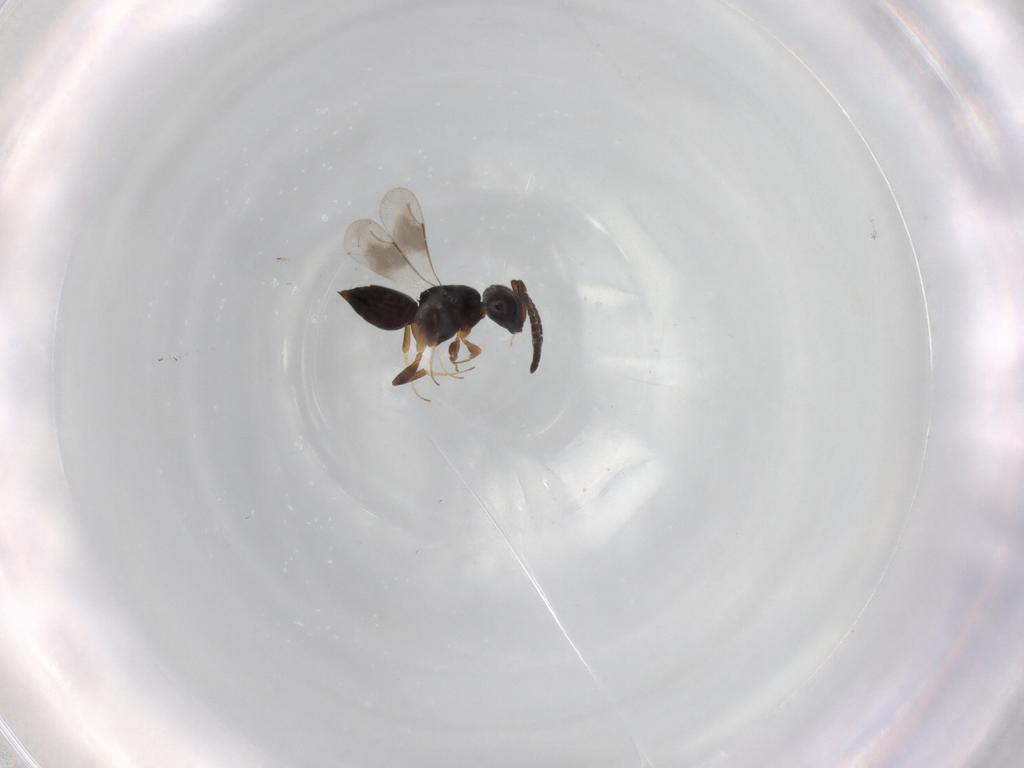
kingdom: Animalia
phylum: Arthropoda
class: Insecta
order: Hymenoptera
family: Ceraphronidae
